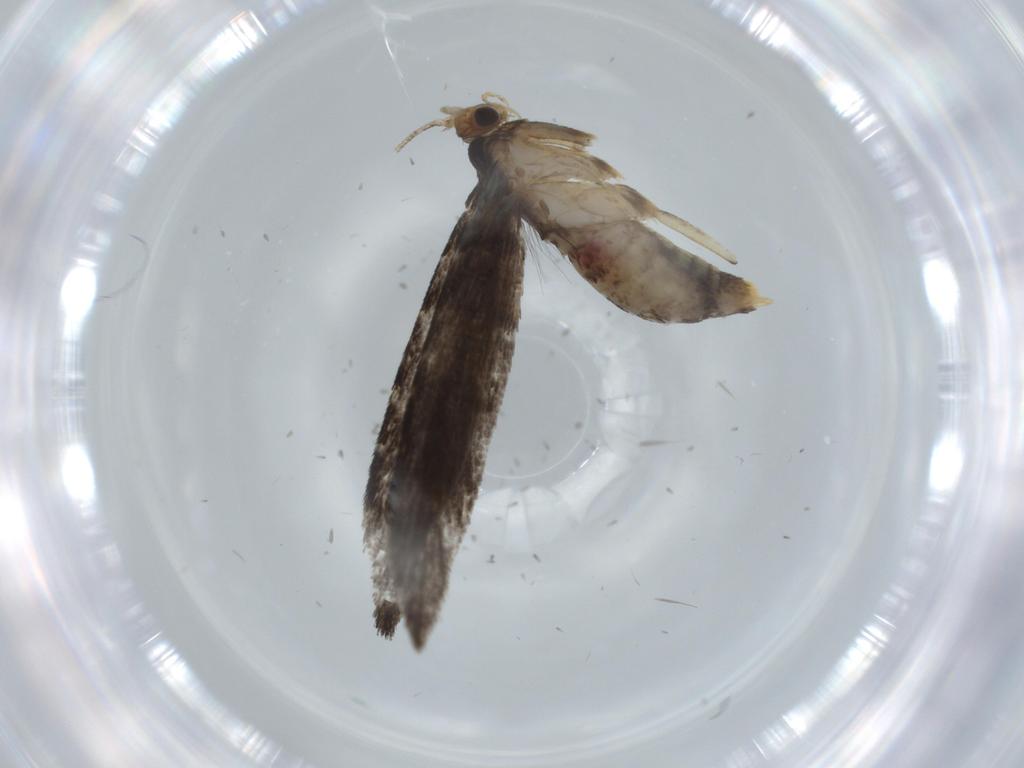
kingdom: Animalia
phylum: Arthropoda
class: Insecta
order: Lepidoptera
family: Tineidae
